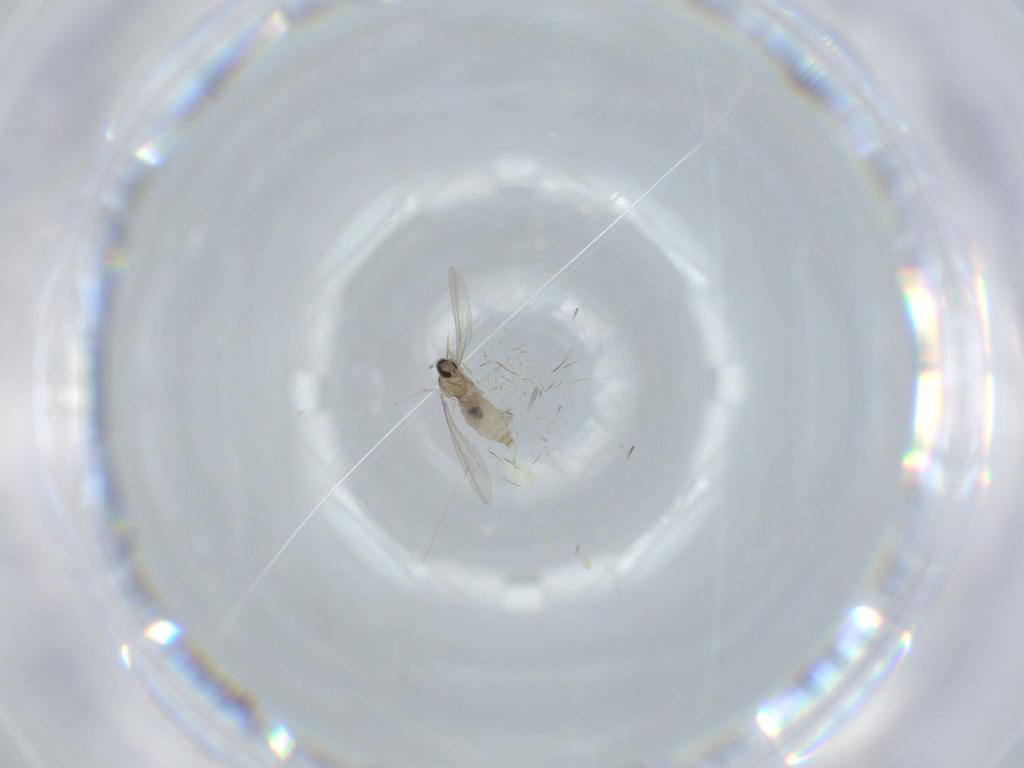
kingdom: Animalia
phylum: Arthropoda
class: Insecta
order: Diptera
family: Cecidomyiidae
